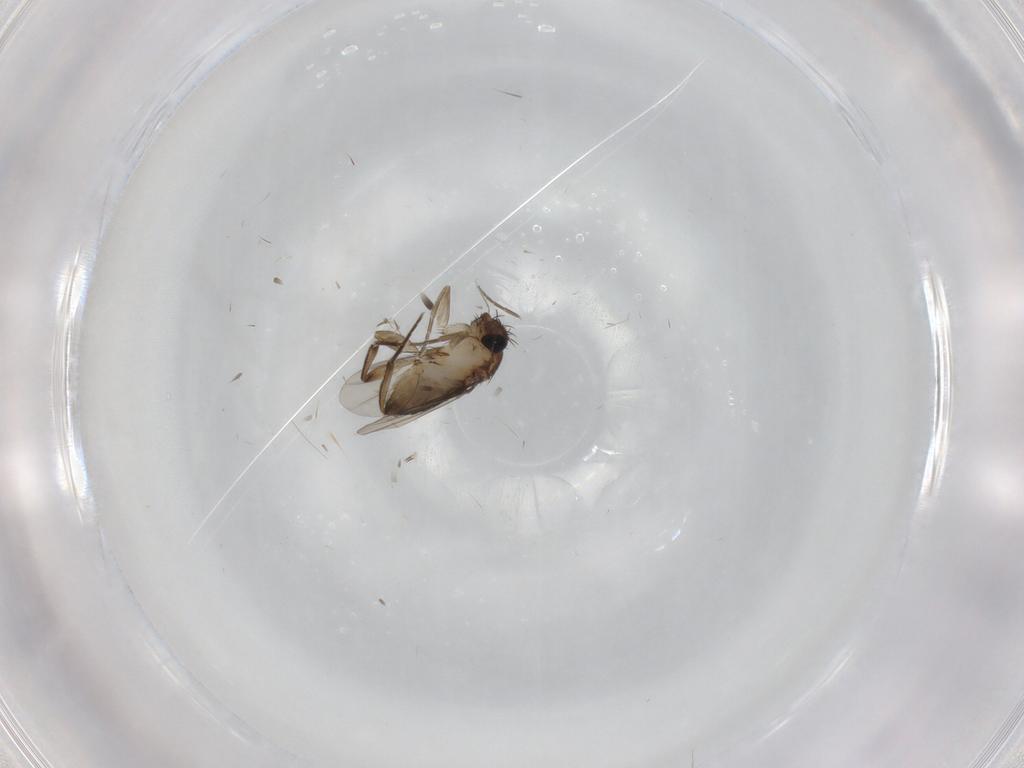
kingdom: Animalia
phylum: Arthropoda
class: Insecta
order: Diptera
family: Phoridae
